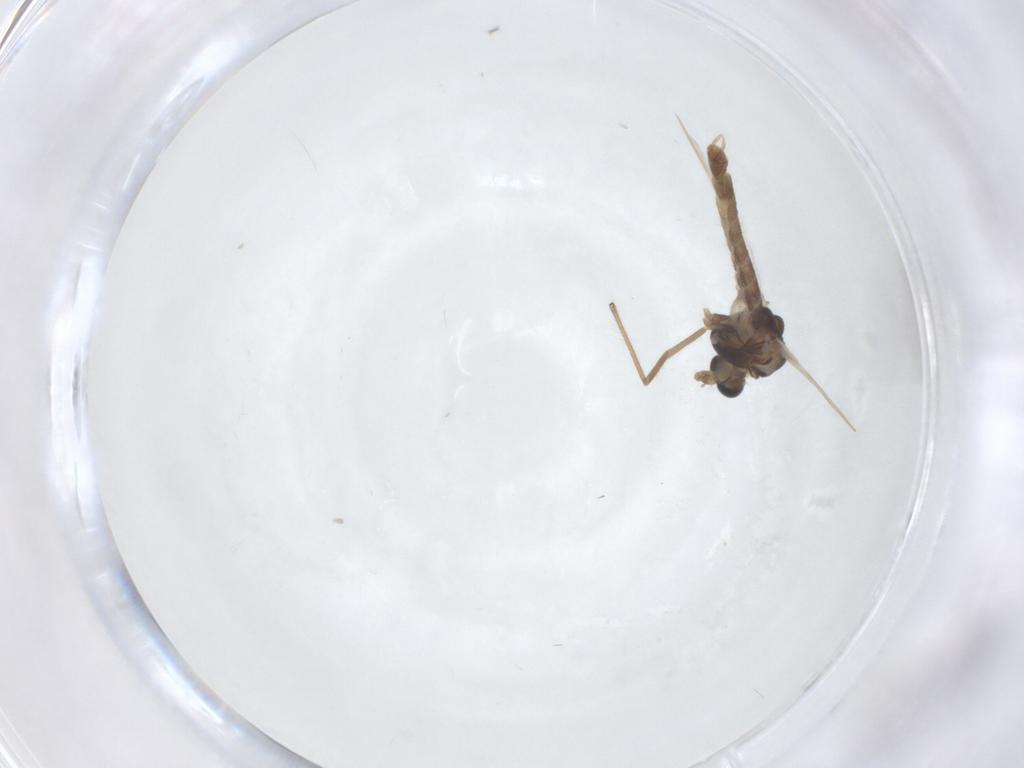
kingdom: Animalia
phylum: Arthropoda
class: Insecta
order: Diptera
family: Chironomidae
